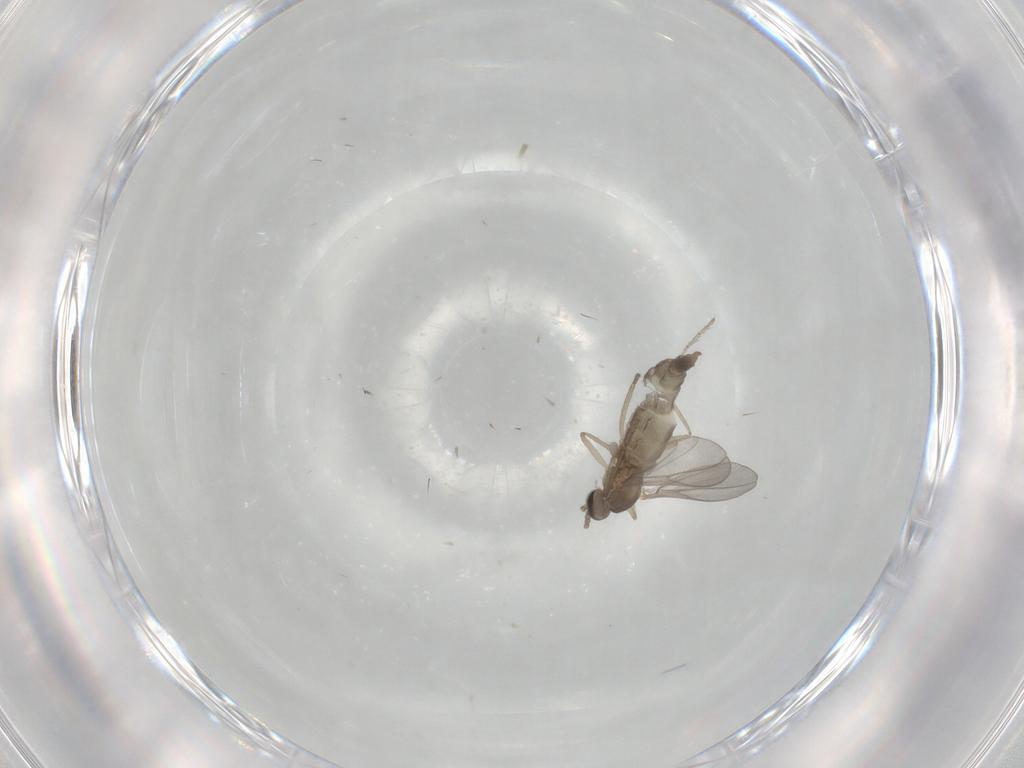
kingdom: Animalia
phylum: Arthropoda
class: Insecta
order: Diptera
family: Cecidomyiidae
